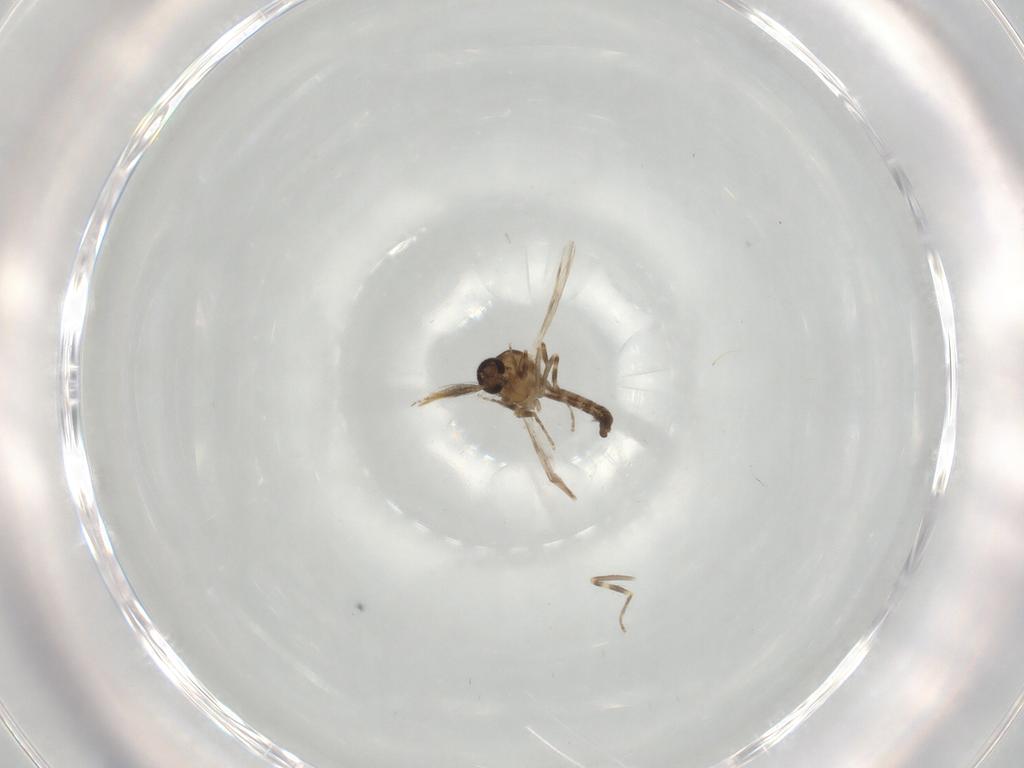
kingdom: Animalia
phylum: Arthropoda
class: Insecta
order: Diptera
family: Ceratopogonidae
